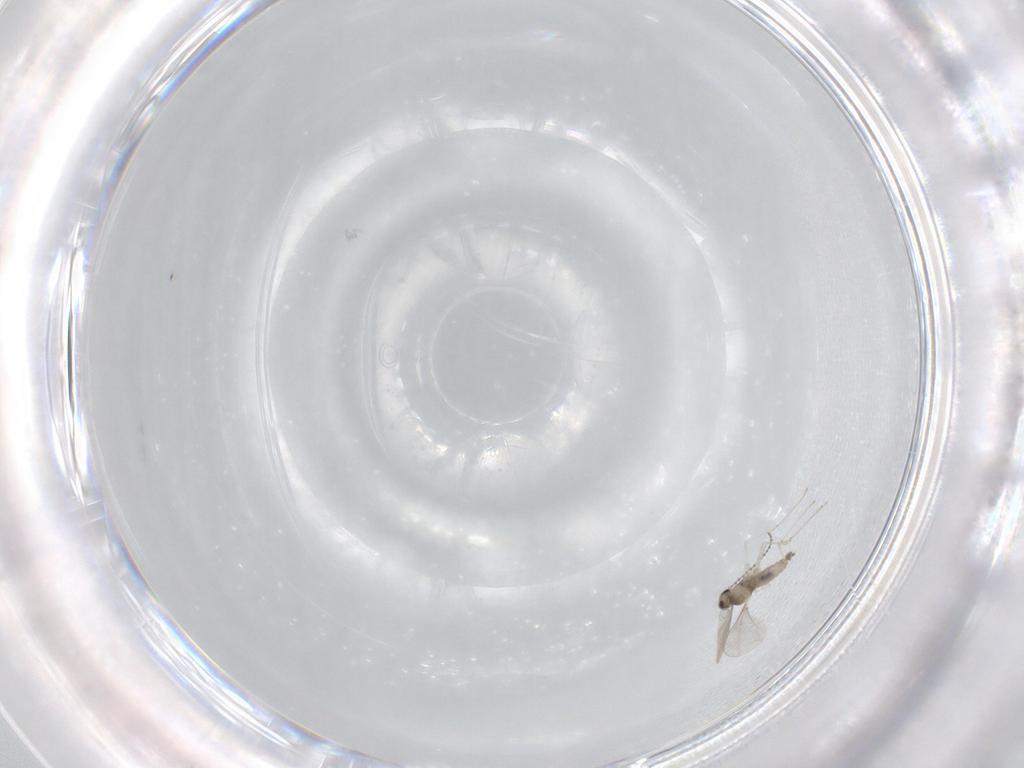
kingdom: Animalia
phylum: Arthropoda
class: Insecta
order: Diptera
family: Cecidomyiidae
